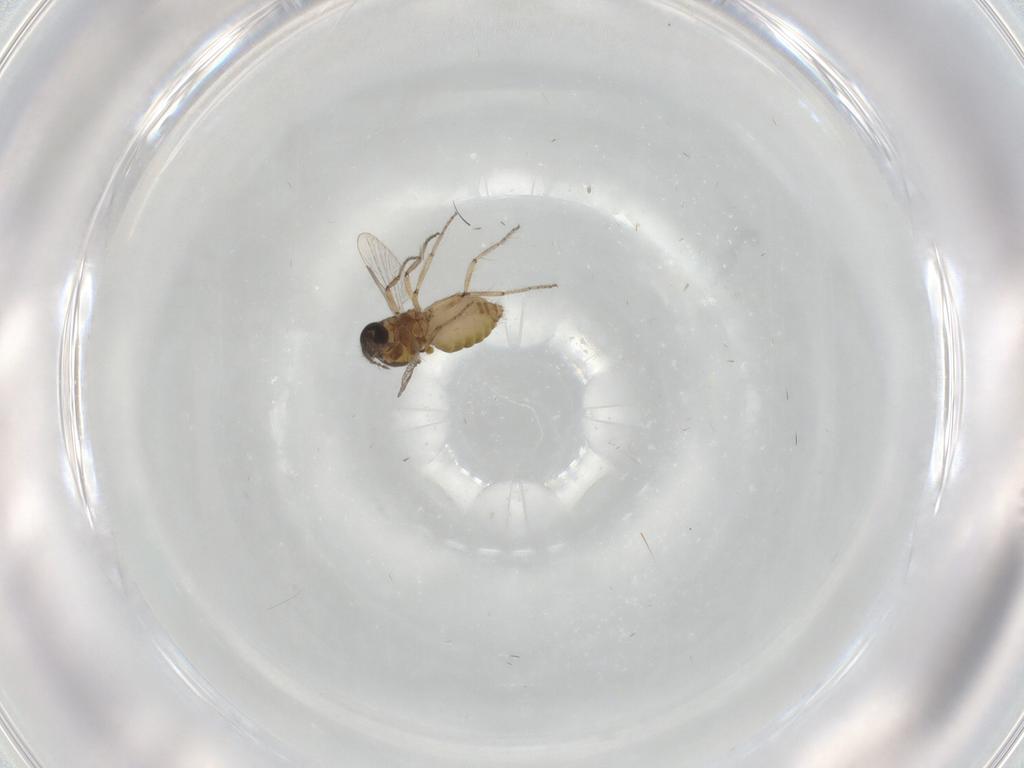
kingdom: Animalia
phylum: Arthropoda
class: Insecta
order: Diptera
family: Ceratopogonidae
